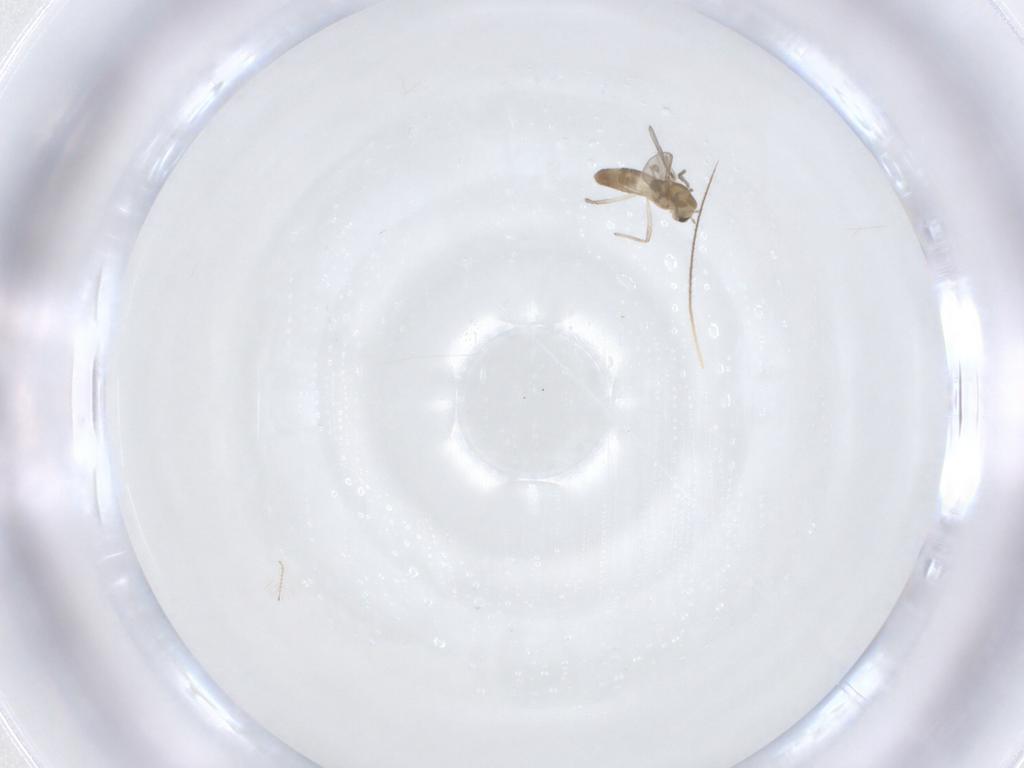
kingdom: Animalia
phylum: Arthropoda
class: Insecta
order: Diptera
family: Chironomidae
